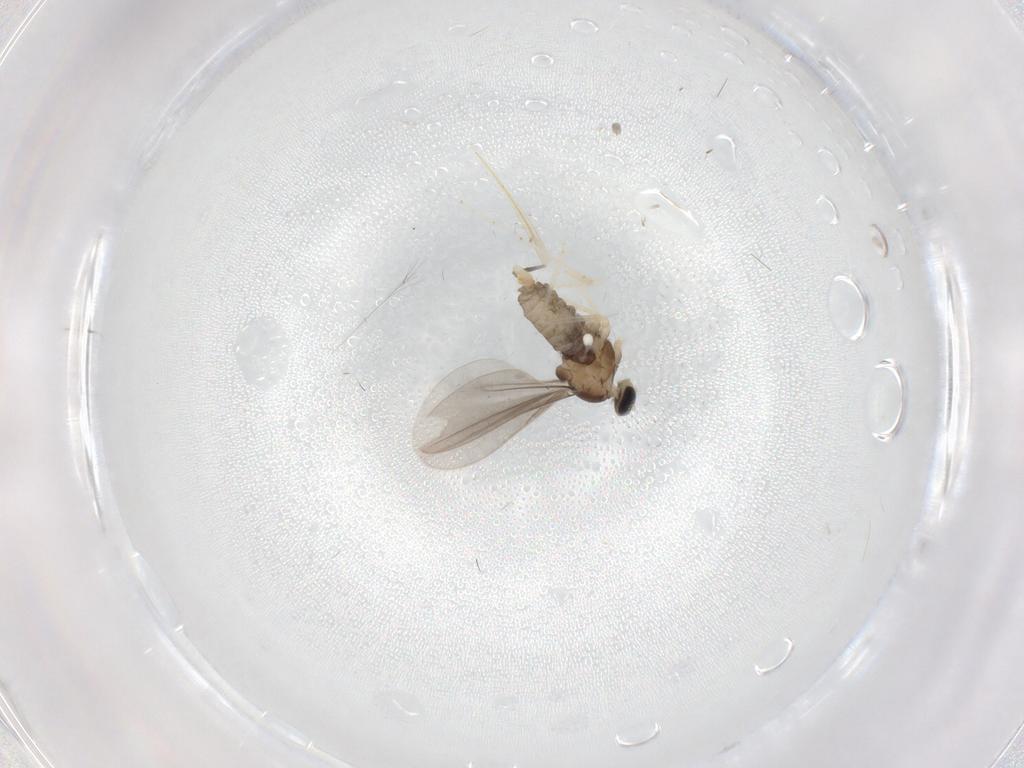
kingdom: Animalia
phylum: Arthropoda
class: Insecta
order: Diptera
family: Cecidomyiidae
